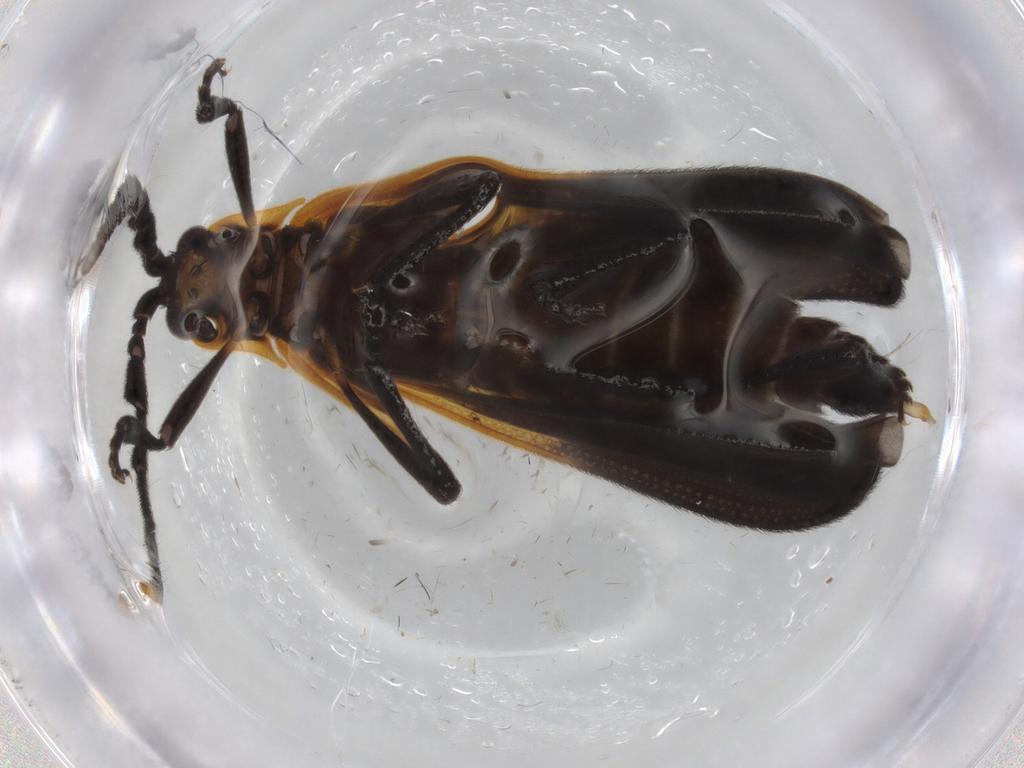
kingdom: Animalia
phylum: Arthropoda
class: Insecta
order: Coleoptera
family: Lycidae
